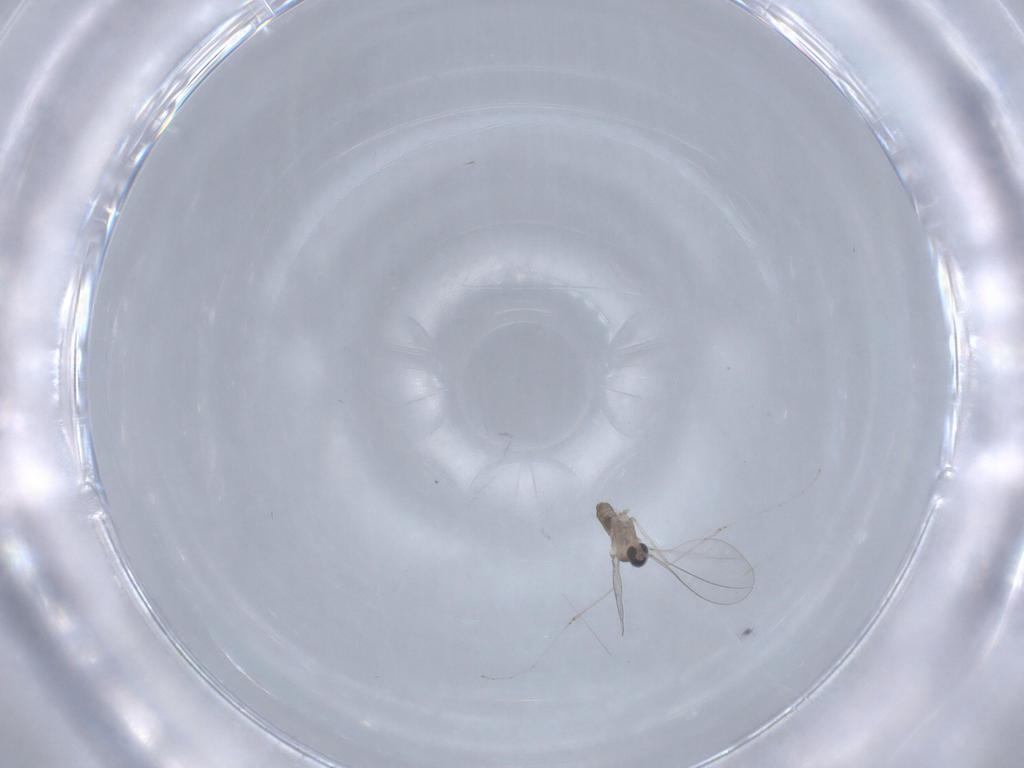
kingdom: Animalia
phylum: Arthropoda
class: Insecta
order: Diptera
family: Cecidomyiidae
